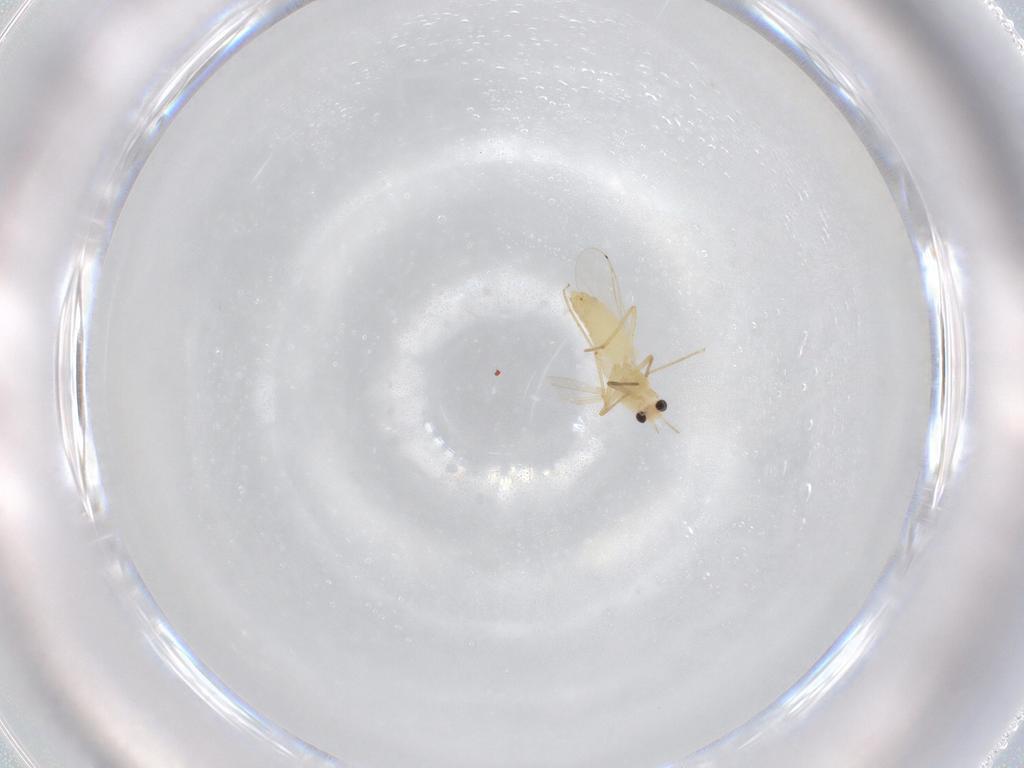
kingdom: Animalia
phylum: Arthropoda
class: Insecta
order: Diptera
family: Chironomidae
